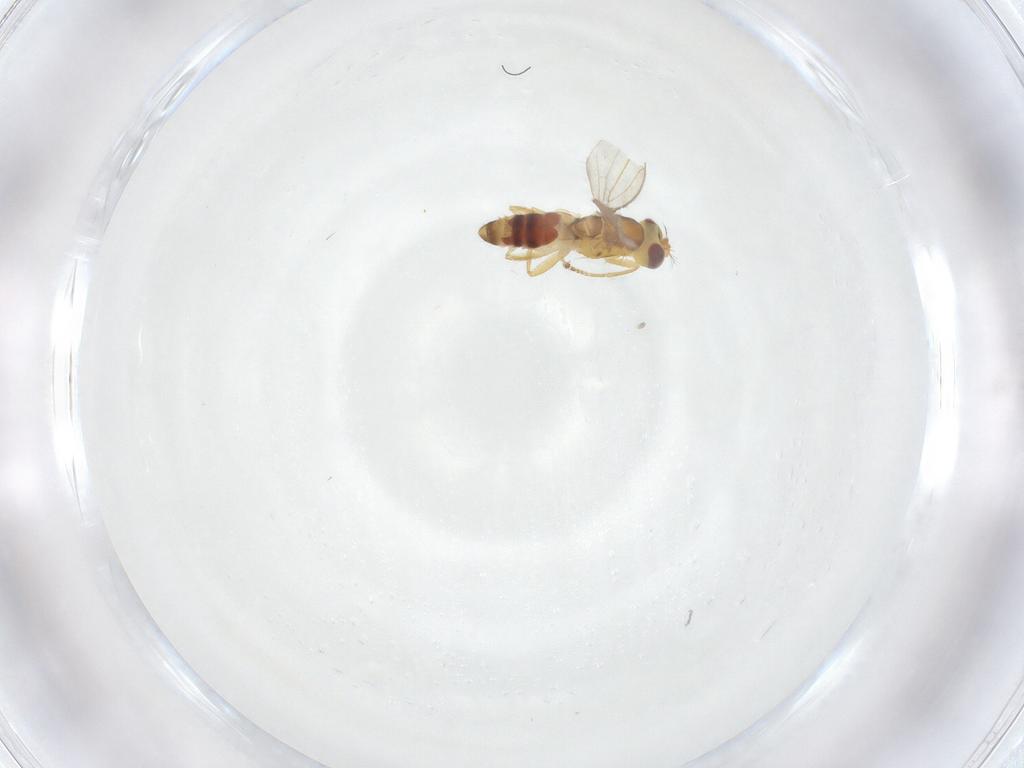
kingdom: Animalia
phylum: Arthropoda
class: Insecta
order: Diptera
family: Periscelididae
